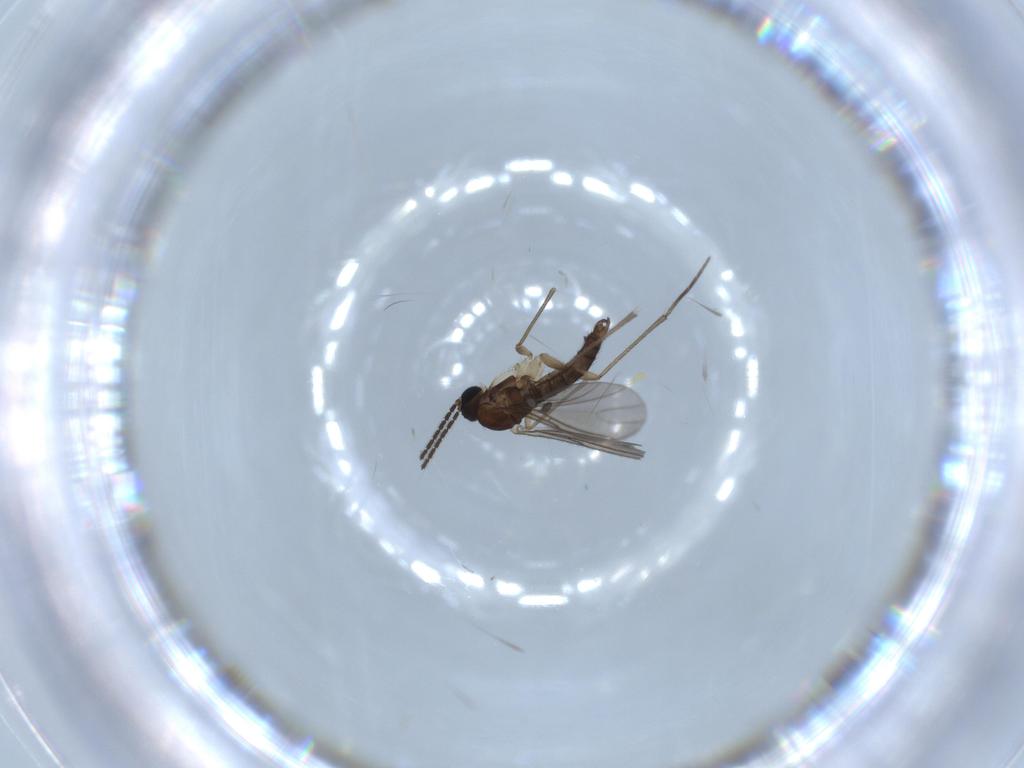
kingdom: Animalia
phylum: Arthropoda
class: Insecta
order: Diptera
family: Sciaridae
